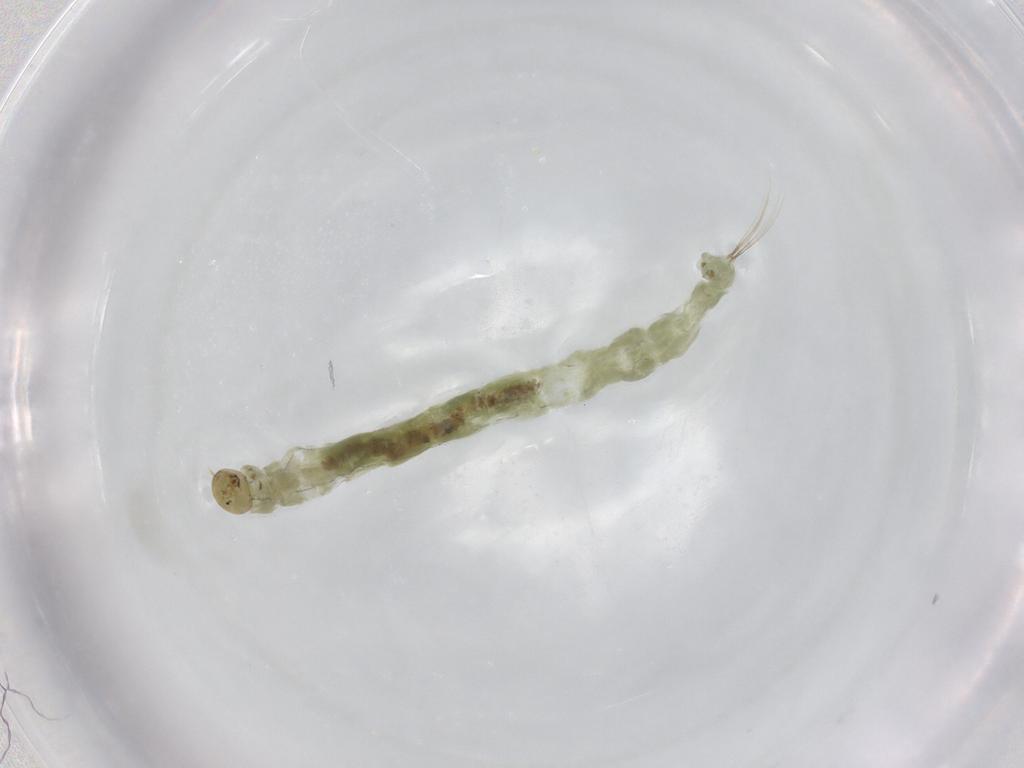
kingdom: Animalia
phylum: Arthropoda
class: Insecta
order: Diptera
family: Chironomidae
